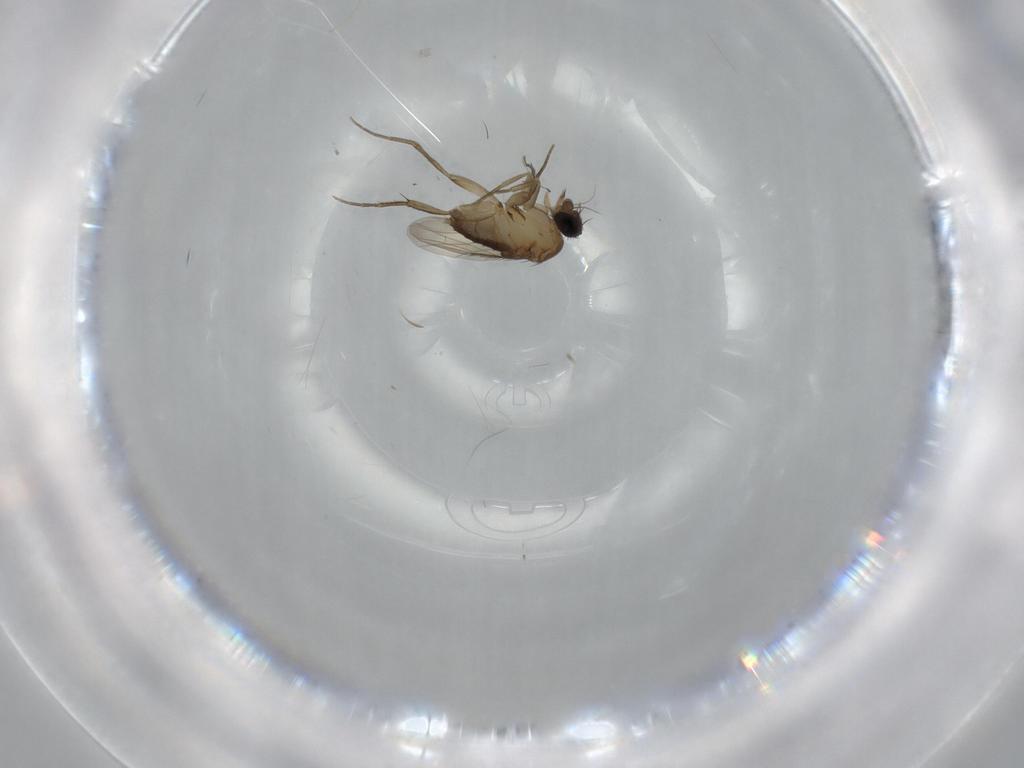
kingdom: Animalia
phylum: Arthropoda
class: Insecta
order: Diptera
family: Phoridae
